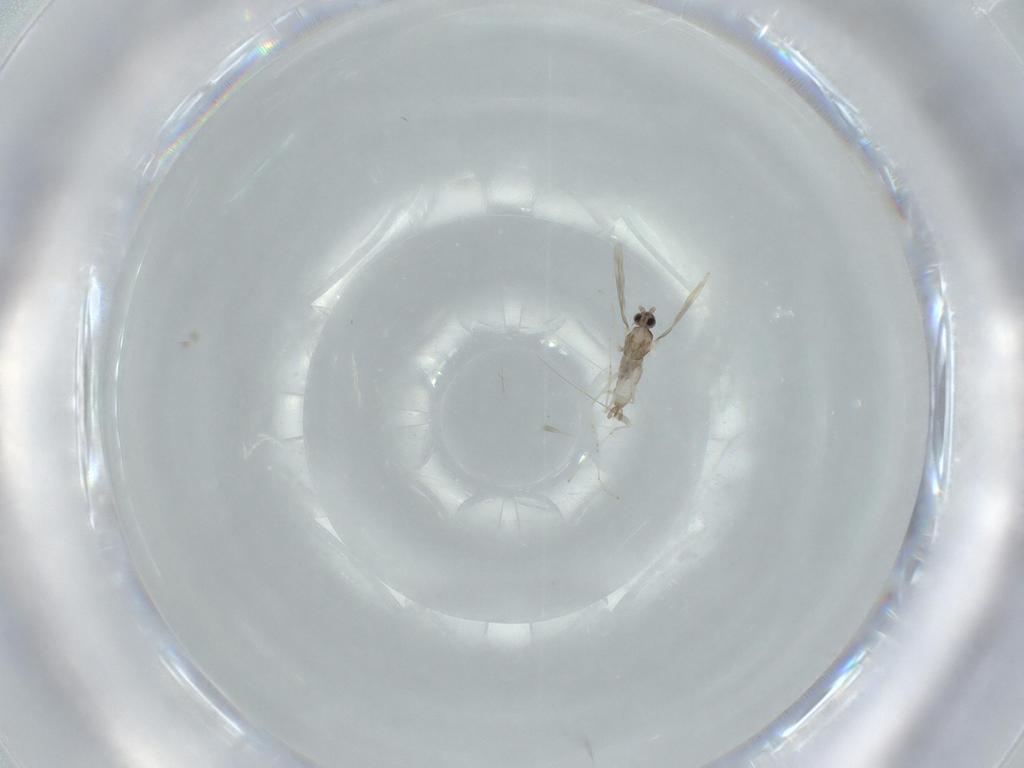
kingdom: Animalia
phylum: Arthropoda
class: Insecta
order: Diptera
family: Cecidomyiidae
